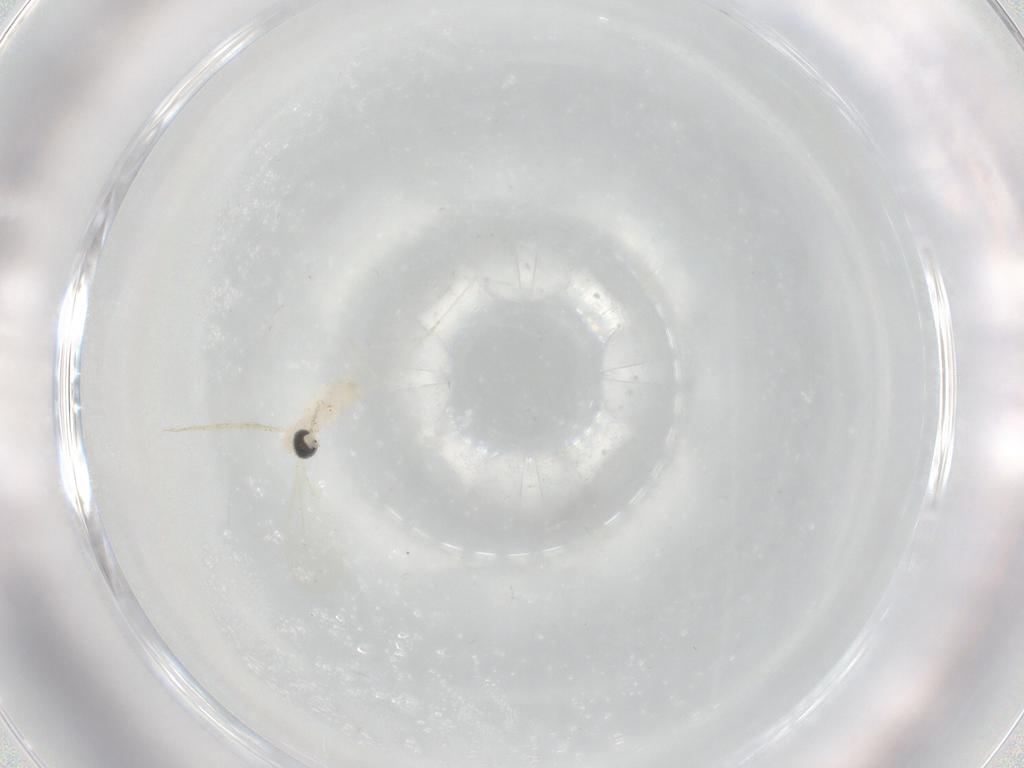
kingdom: Animalia
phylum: Arthropoda
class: Insecta
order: Diptera
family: Cecidomyiidae
